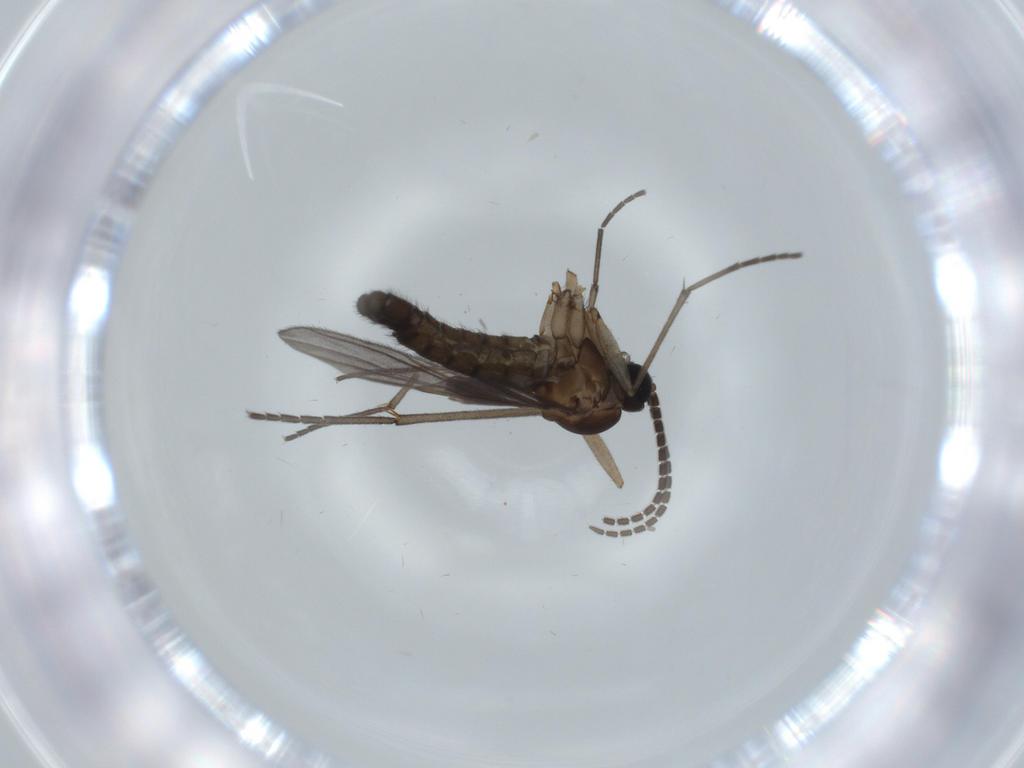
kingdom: Animalia
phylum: Arthropoda
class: Insecta
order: Diptera
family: Sciaridae
